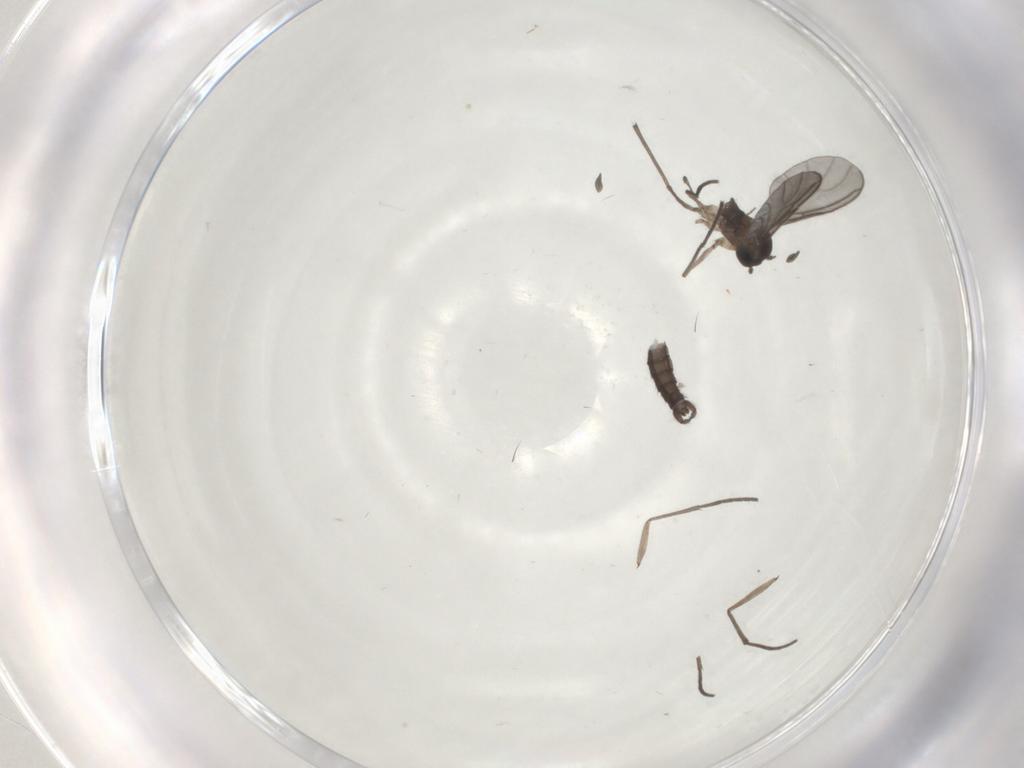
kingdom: Animalia
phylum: Arthropoda
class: Insecta
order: Diptera
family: Sciaridae
